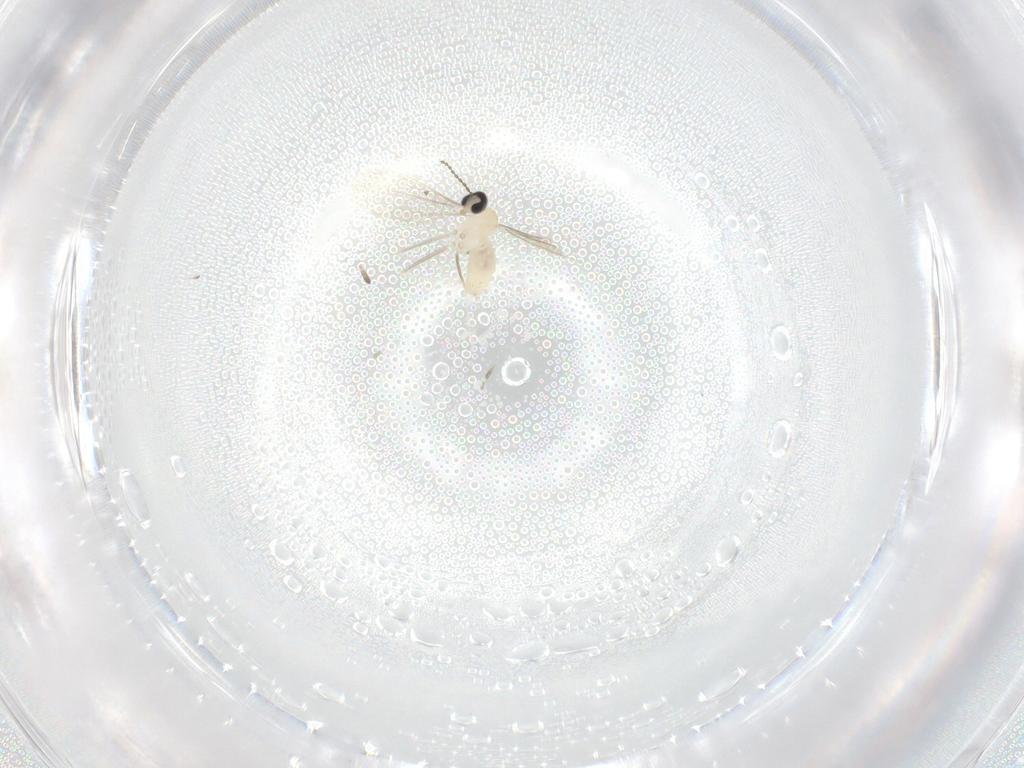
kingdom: Animalia
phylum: Arthropoda
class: Insecta
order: Diptera
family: Cecidomyiidae
